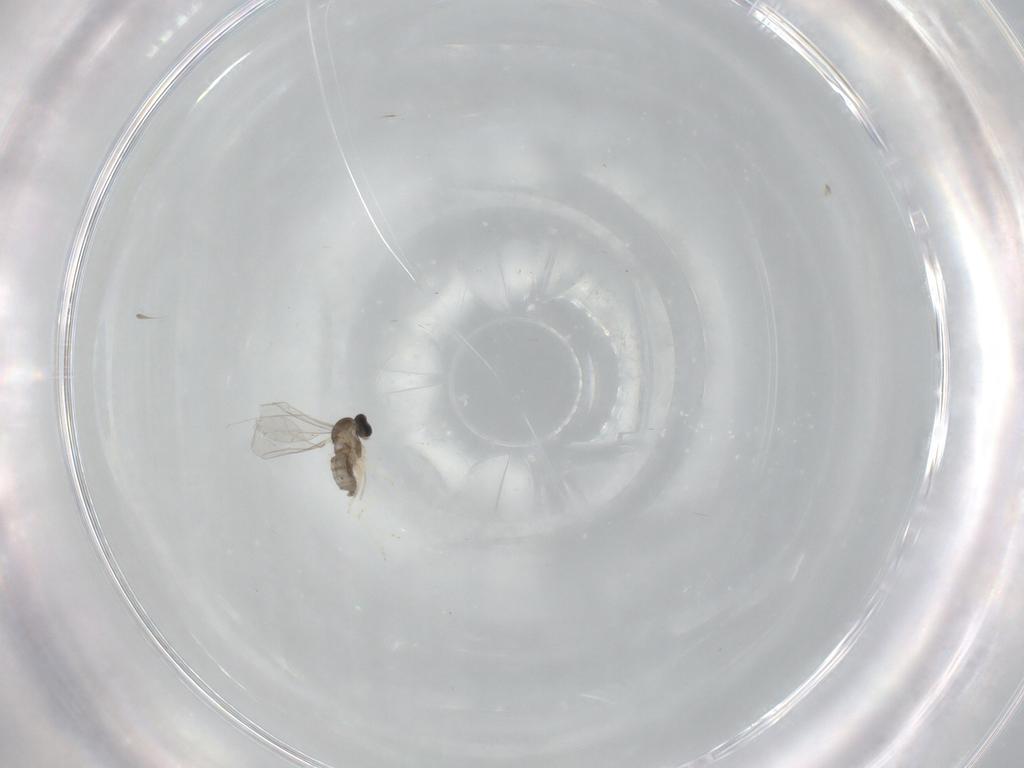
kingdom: Animalia
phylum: Arthropoda
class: Insecta
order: Diptera
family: Cecidomyiidae
